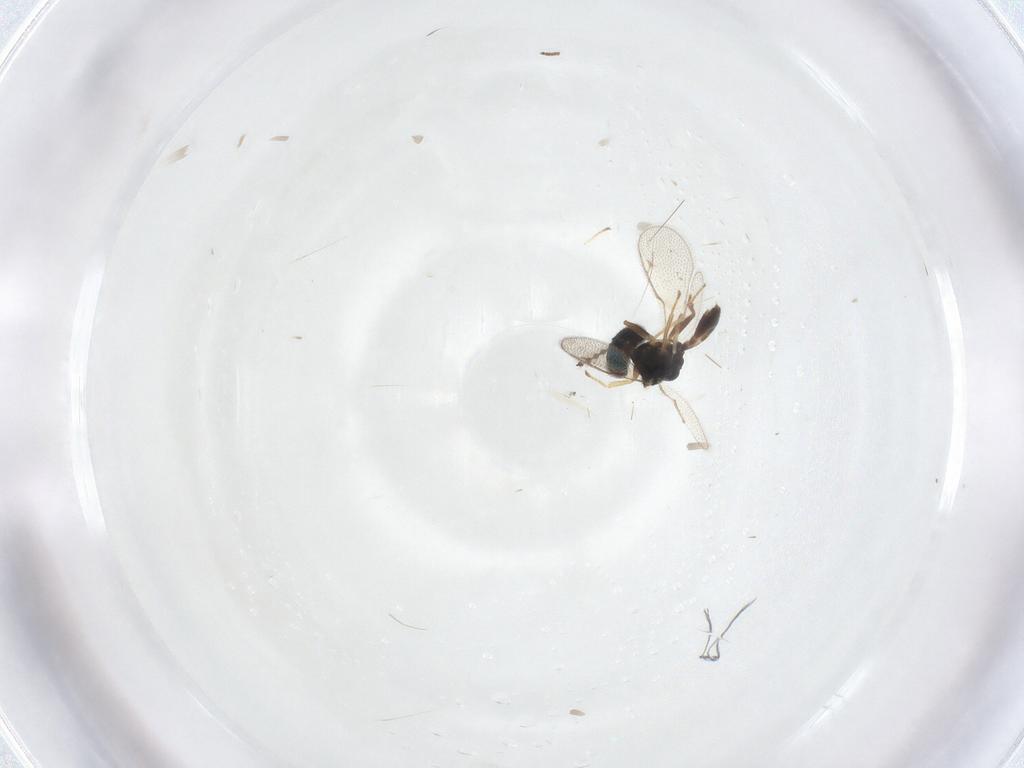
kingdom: Animalia
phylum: Arthropoda
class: Insecta
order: Hymenoptera
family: Pteromalidae
